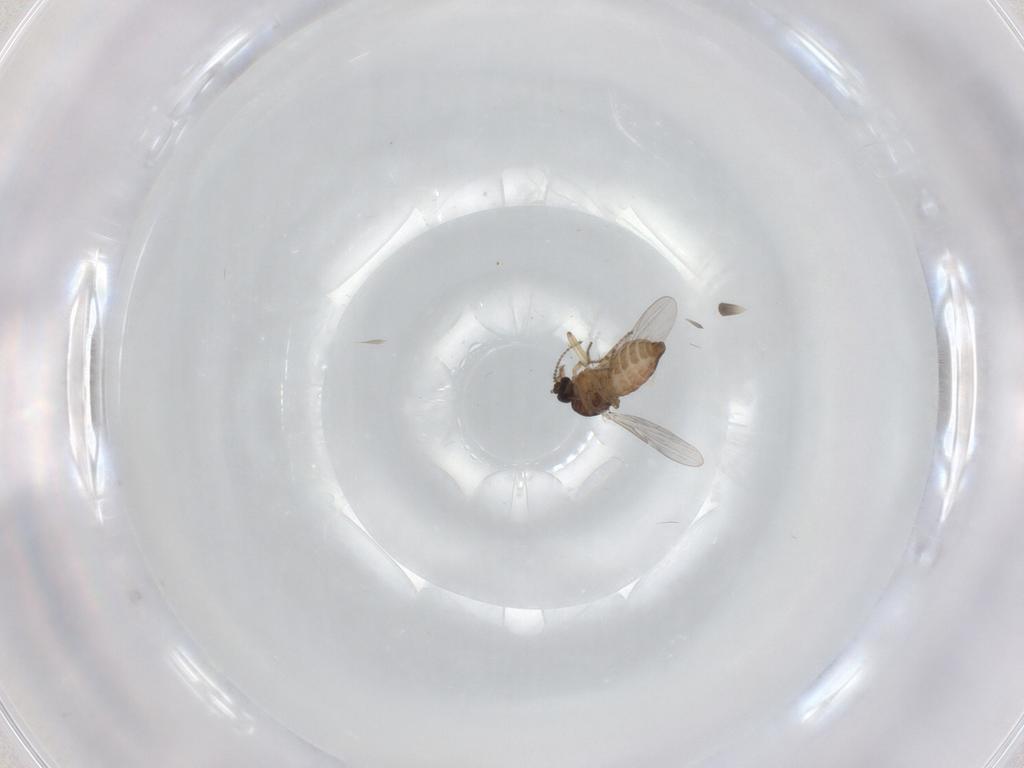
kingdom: Animalia
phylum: Arthropoda
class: Insecta
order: Diptera
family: Ceratopogonidae
